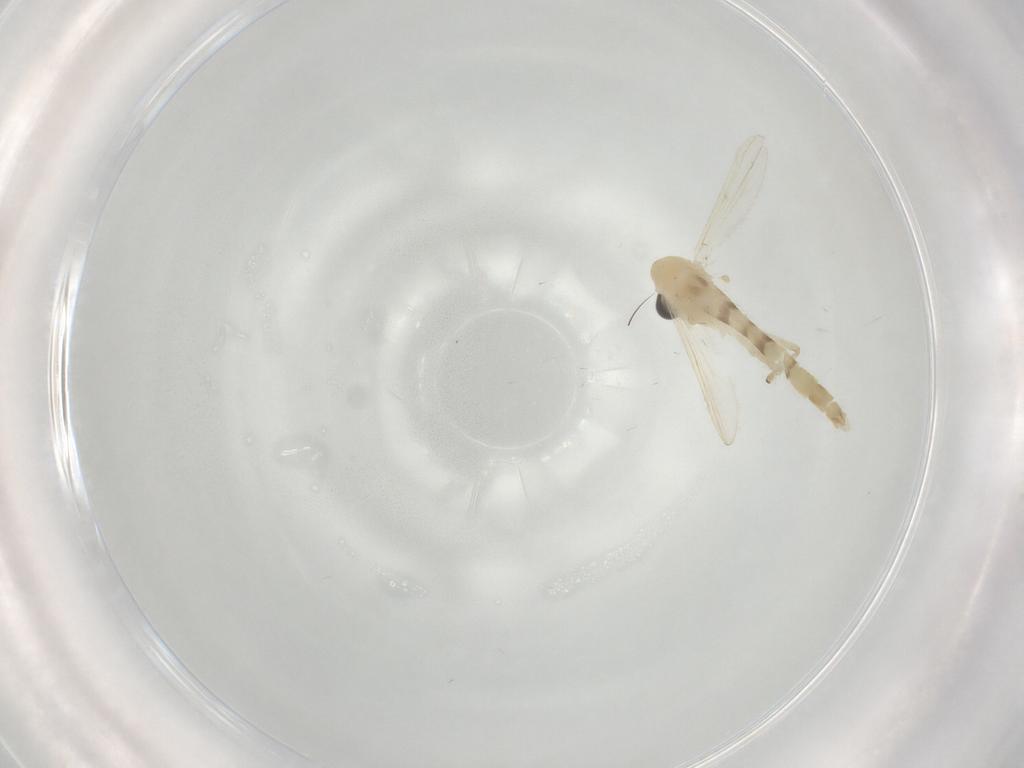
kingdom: Animalia
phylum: Arthropoda
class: Insecta
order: Diptera
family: Chironomidae
